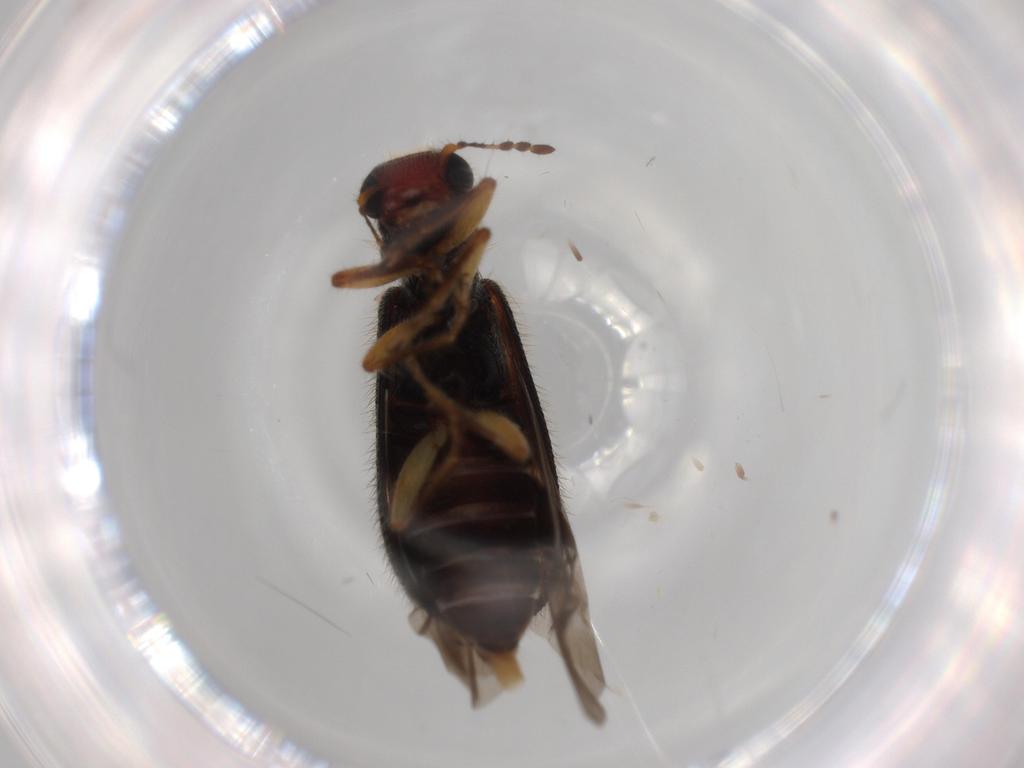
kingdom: Animalia
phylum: Arthropoda
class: Insecta
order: Coleoptera
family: Cleridae
